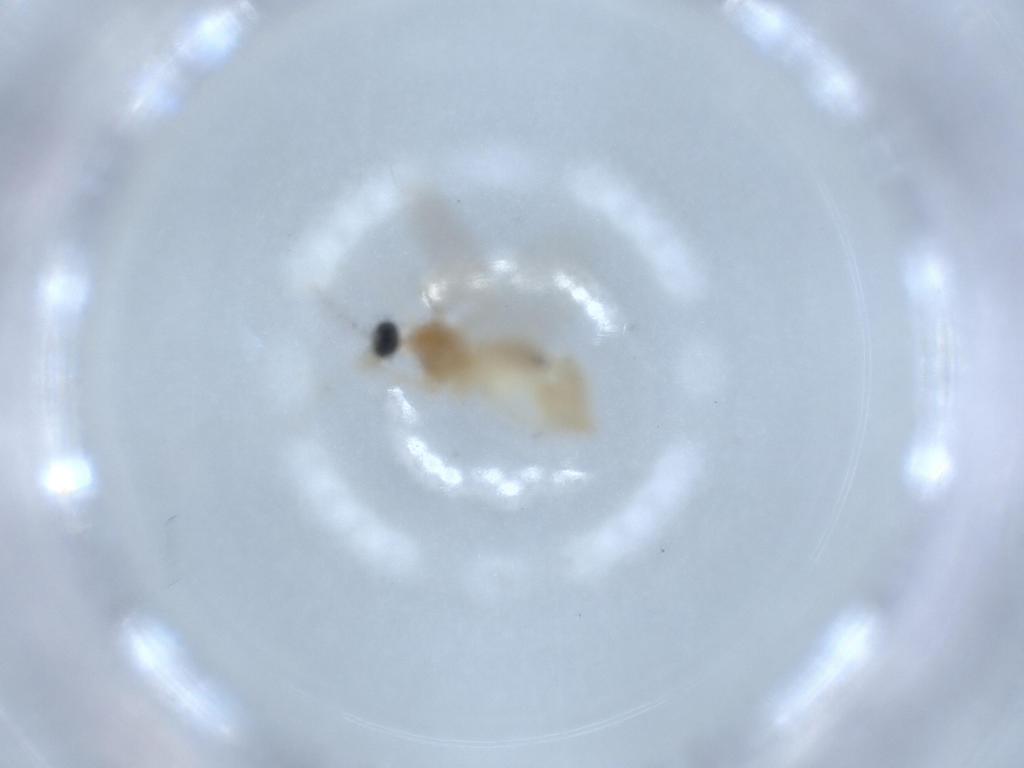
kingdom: Animalia
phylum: Arthropoda
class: Insecta
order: Diptera
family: Cecidomyiidae
